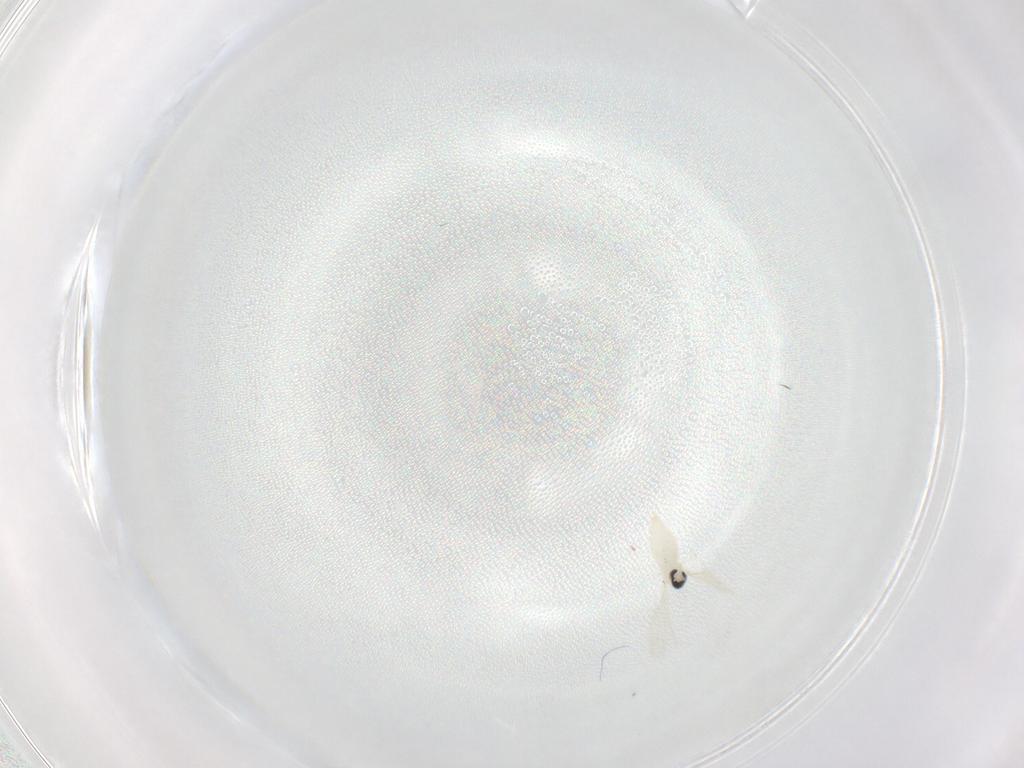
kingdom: Animalia
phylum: Arthropoda
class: Insecta
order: Diptera
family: Cecidomyiidae
